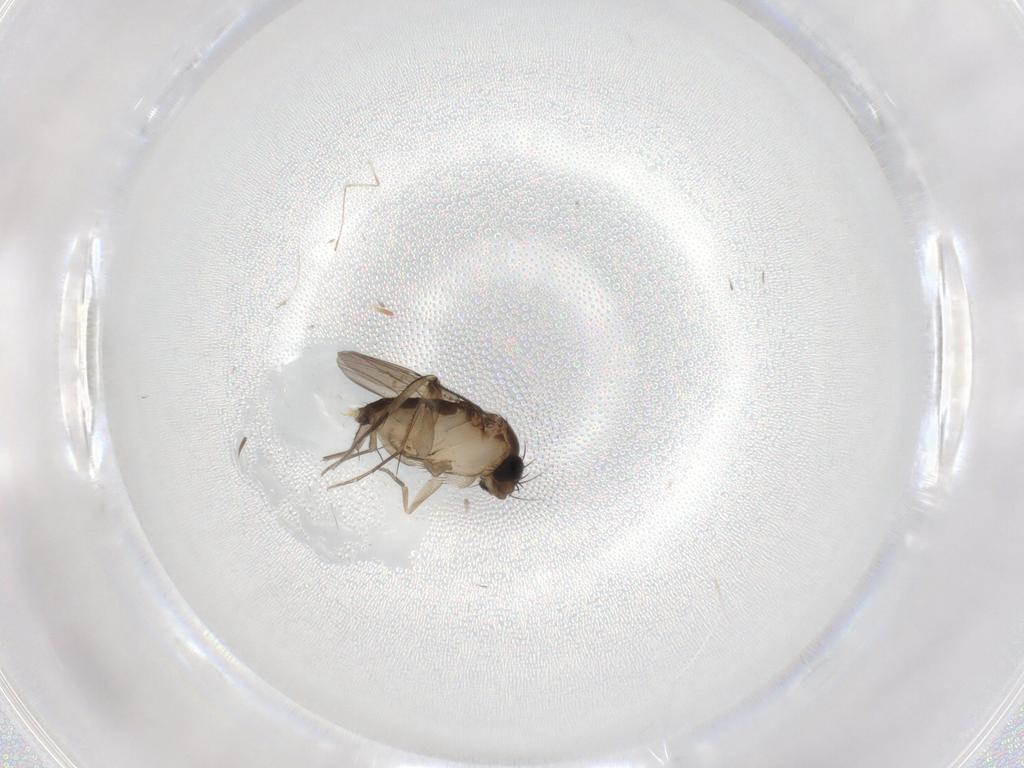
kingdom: Animalia
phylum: Arthropoda
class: Insecta
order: Diptera
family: Phoridae
